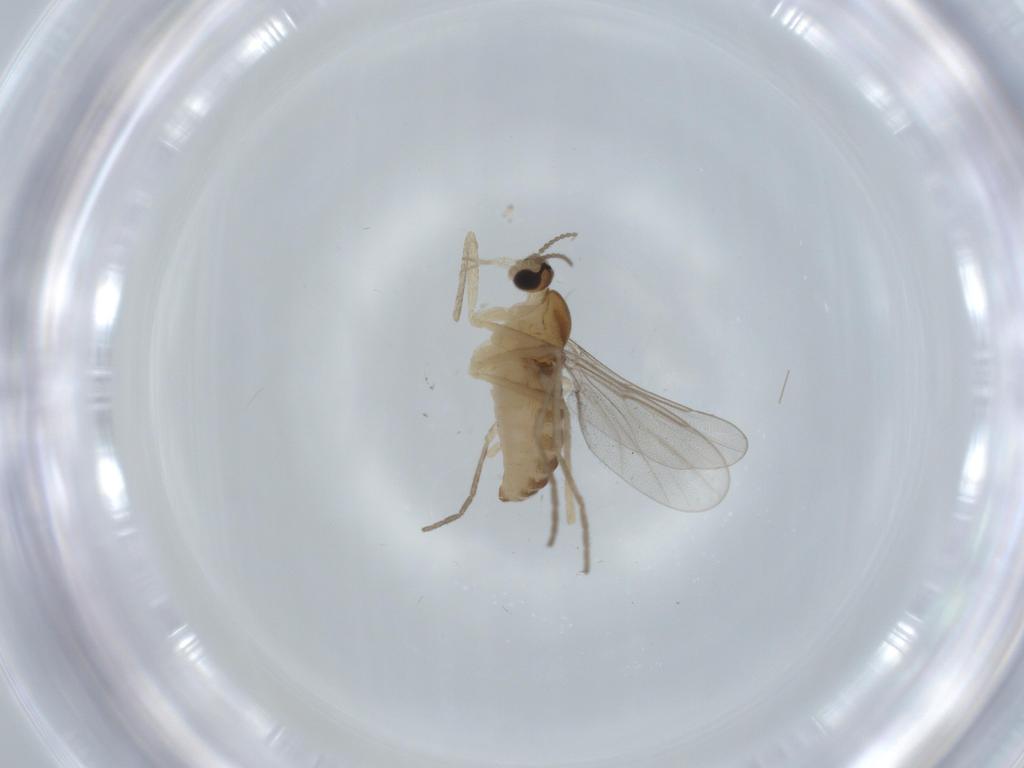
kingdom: Animalia
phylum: Arthropoda
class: Insecta
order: Diptera
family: Cecidomyiidae
